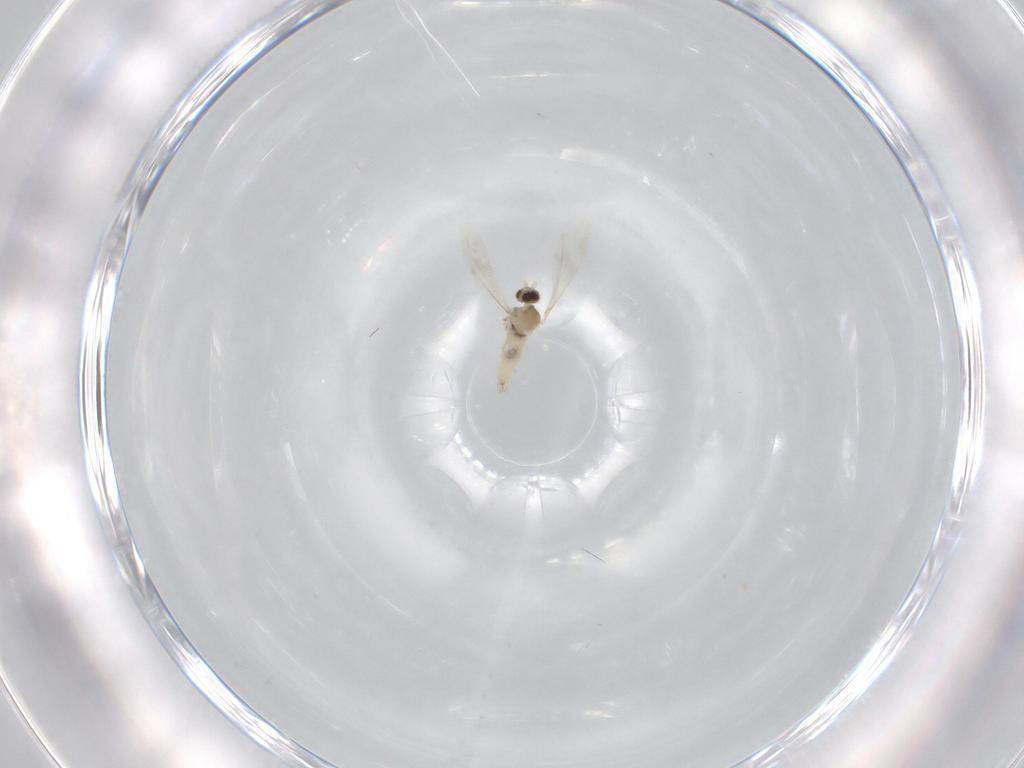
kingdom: Animalia
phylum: Arthropoda
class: Insecta
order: Diptera
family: Cecidomyiidae
